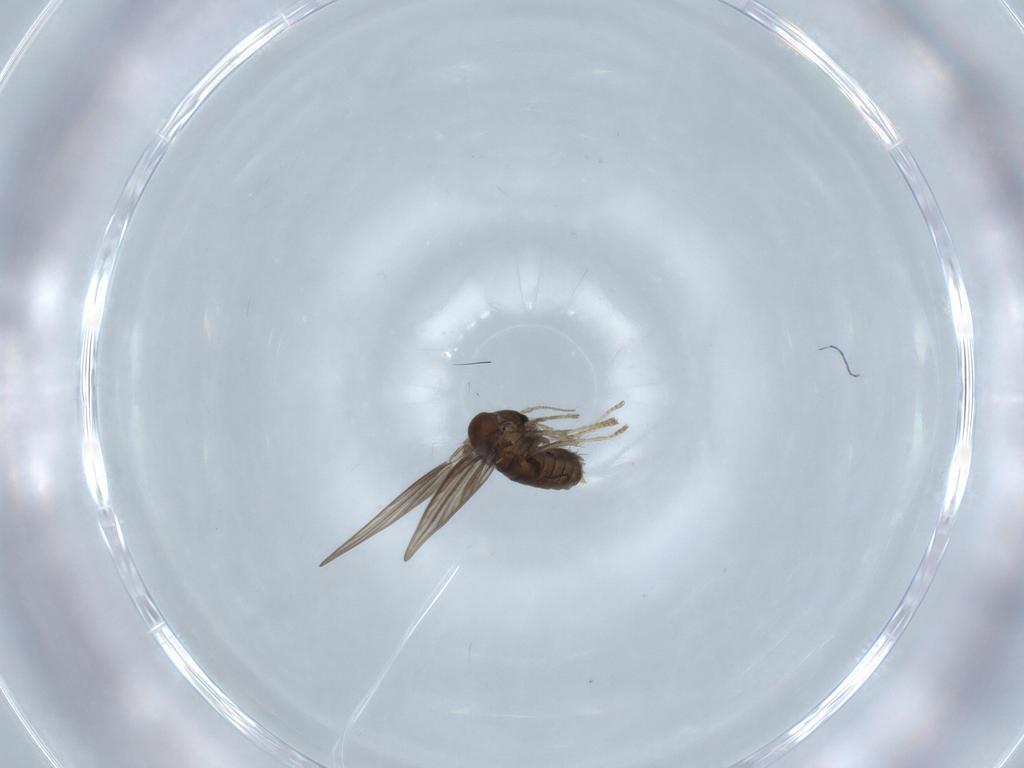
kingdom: Animalia
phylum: Arthropoda
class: Insecta
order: Diptera
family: Psychodidae
